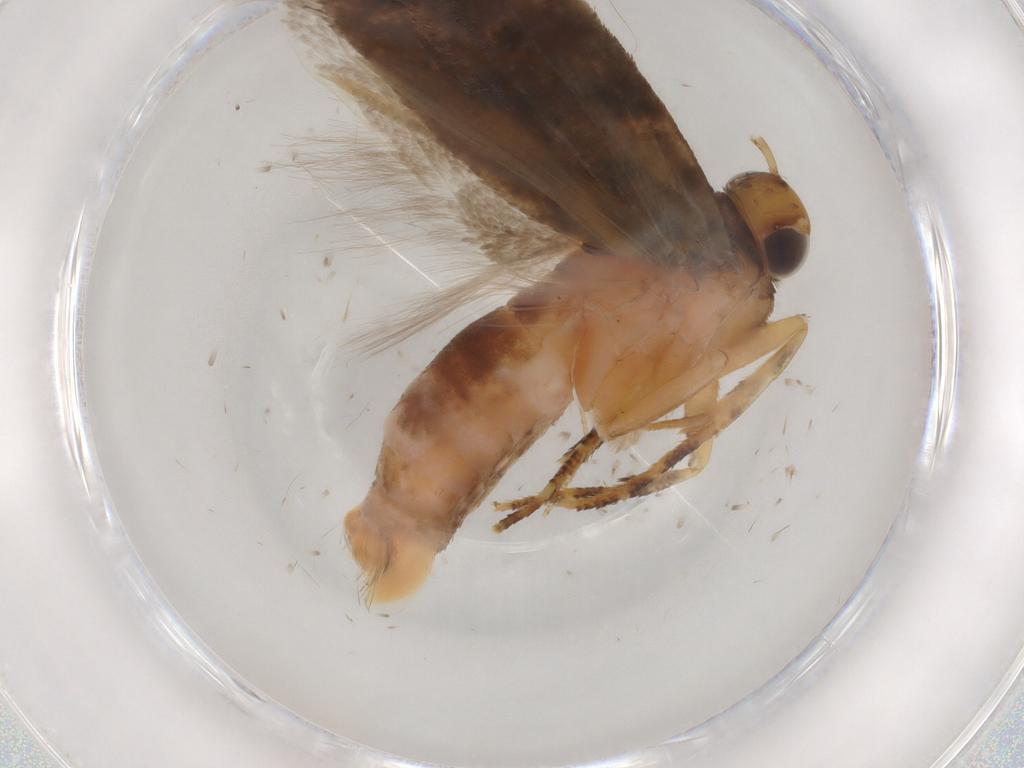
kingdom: Animalia
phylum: Arthropoda
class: Insecta
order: Lepidoptera
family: Gelechiidae
